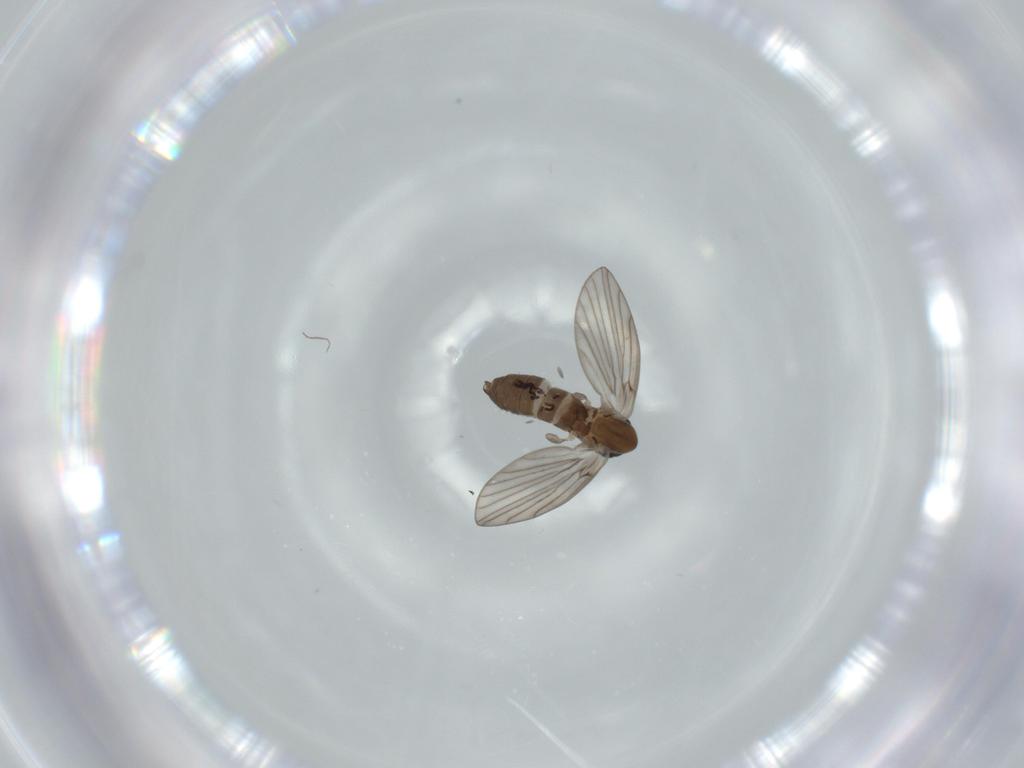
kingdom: Animalia
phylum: Arthropoda
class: Insecta
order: Diptera
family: Psychodidae
